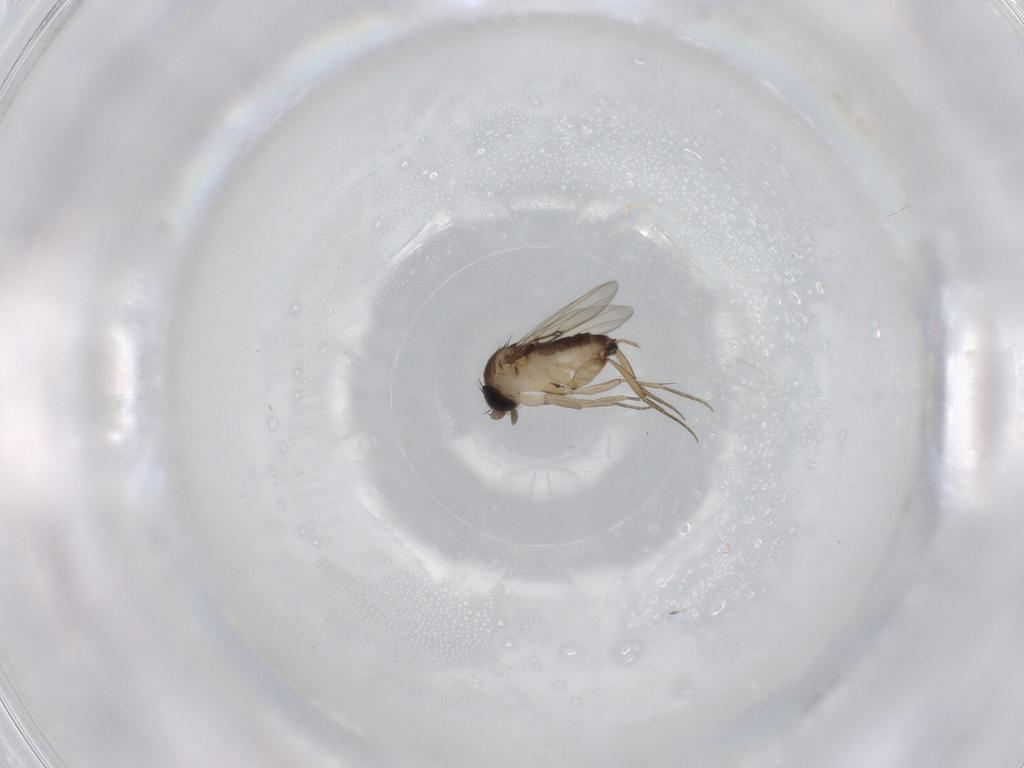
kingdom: Animalia
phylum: Arthropoda
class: Insecta
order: Diptera
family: Phoridae
